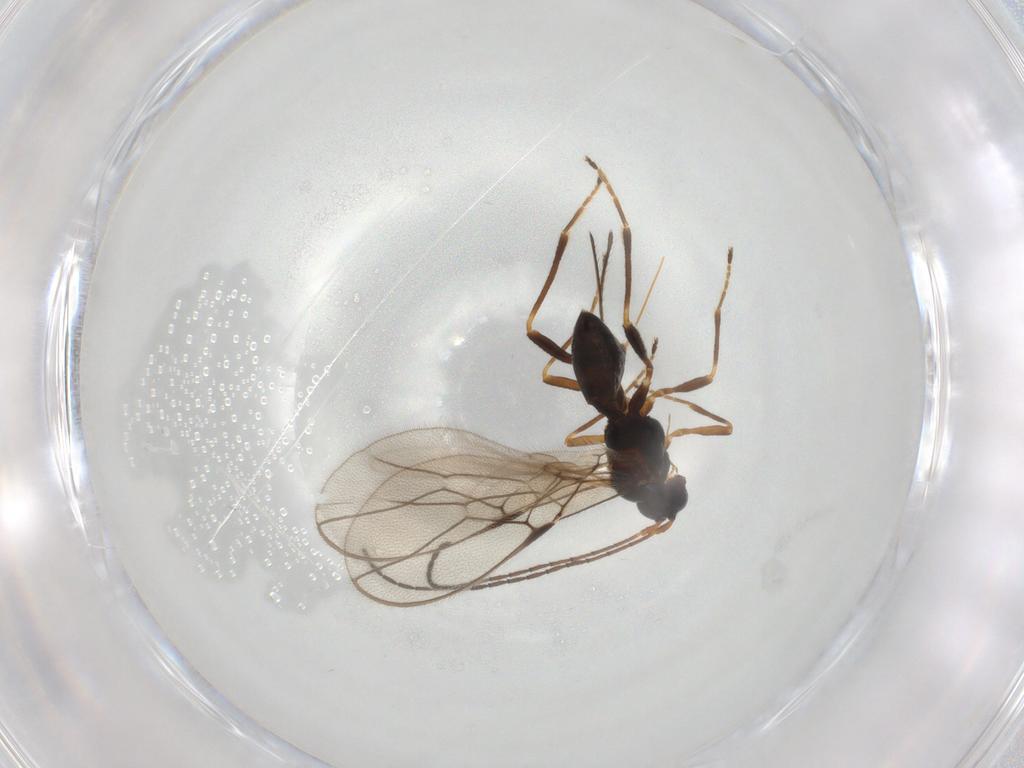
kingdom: Animalia
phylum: Arthropoda
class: Insecta
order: Hymenoptera
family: Braconidae
